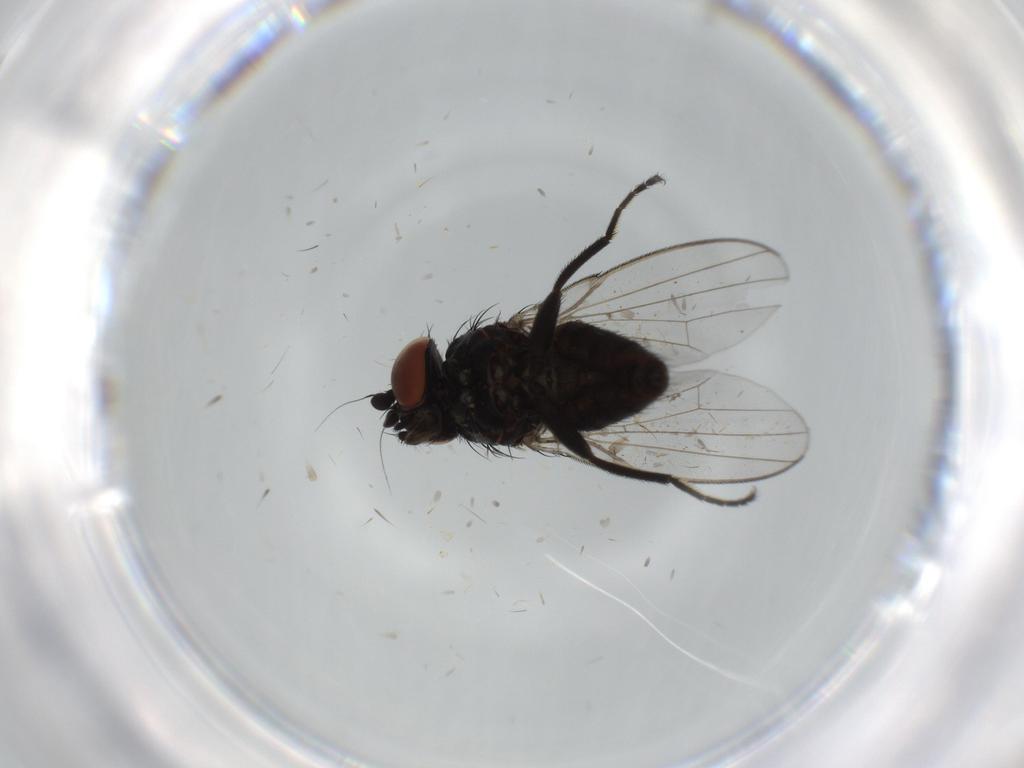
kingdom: Animalia
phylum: Arthropoda
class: Insecta
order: Diptera
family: Milichiidae
